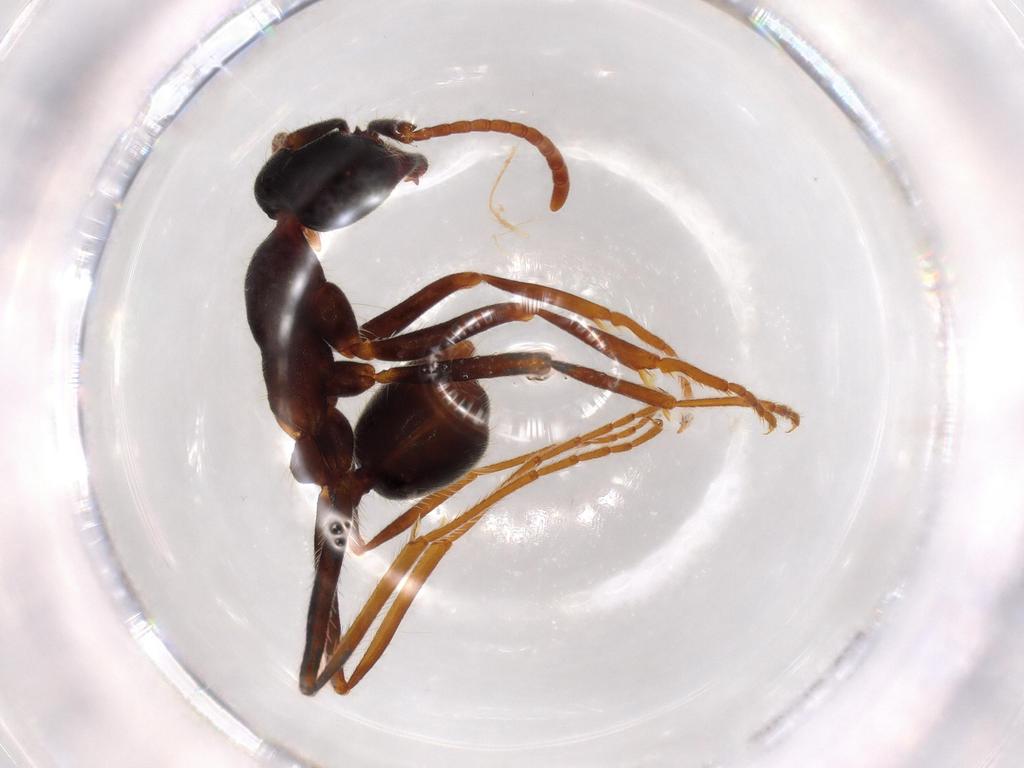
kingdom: Animalia
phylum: Arthropoda
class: Insecta
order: Hymenoptera
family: Formicidae
